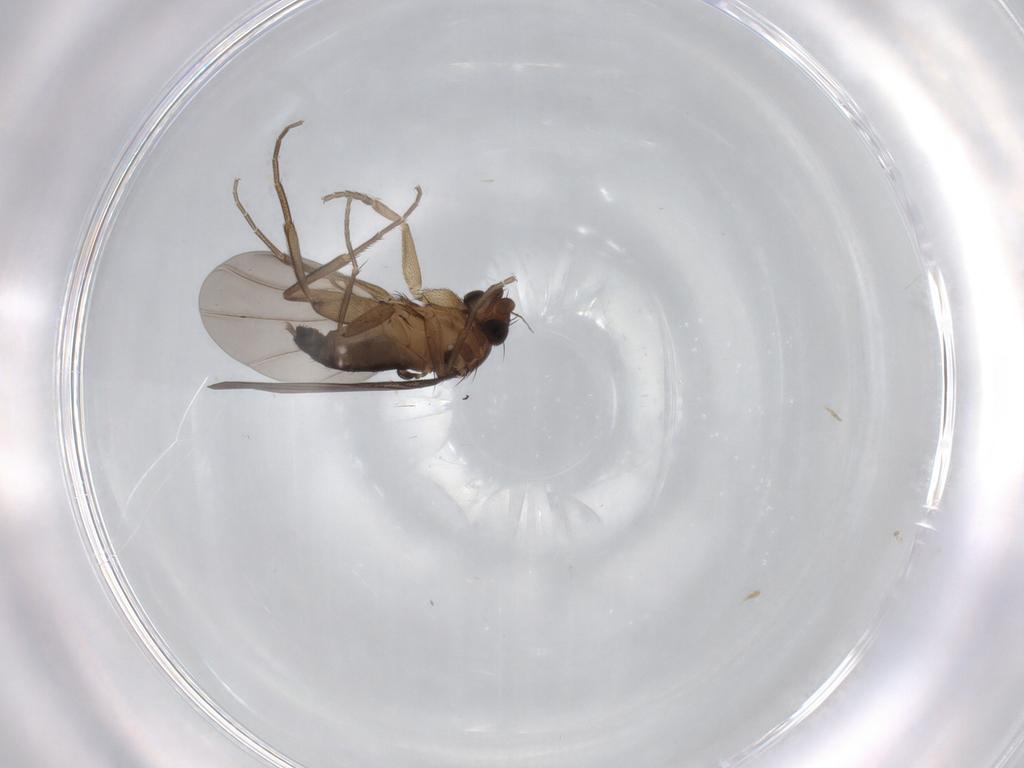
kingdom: Animalia
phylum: Arthropoda
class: Insecta
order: Diptera
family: Phoridae
